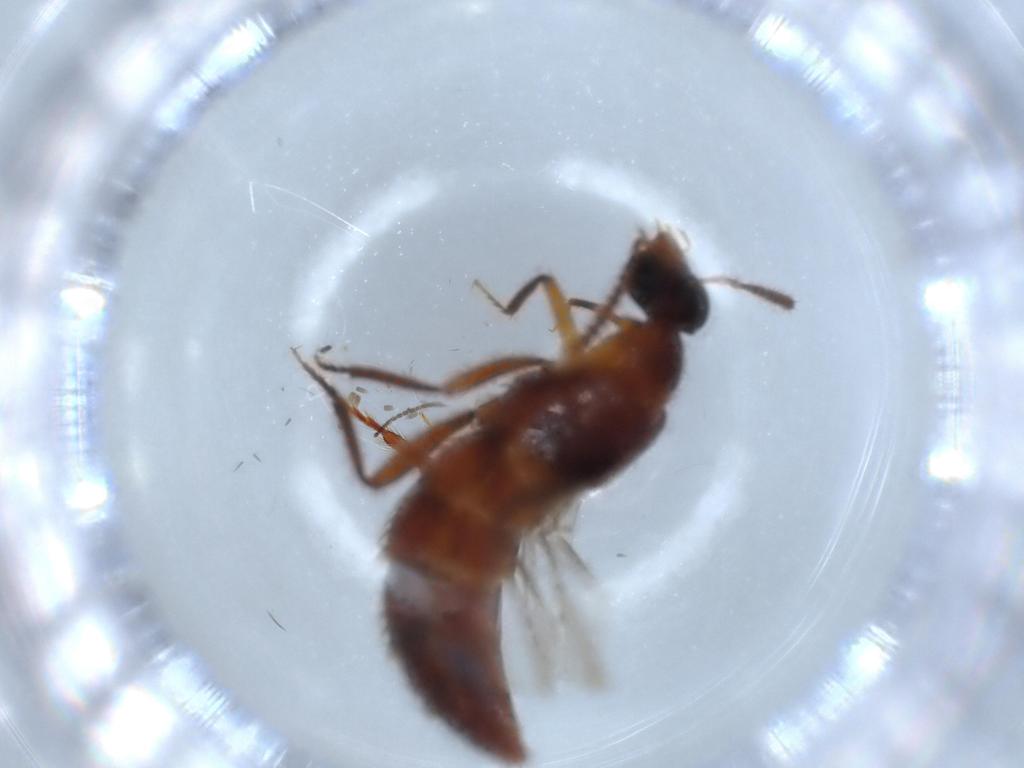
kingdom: Animalia
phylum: Arthropoda
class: Insecta
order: Coleoptera
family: Staphylinidae
